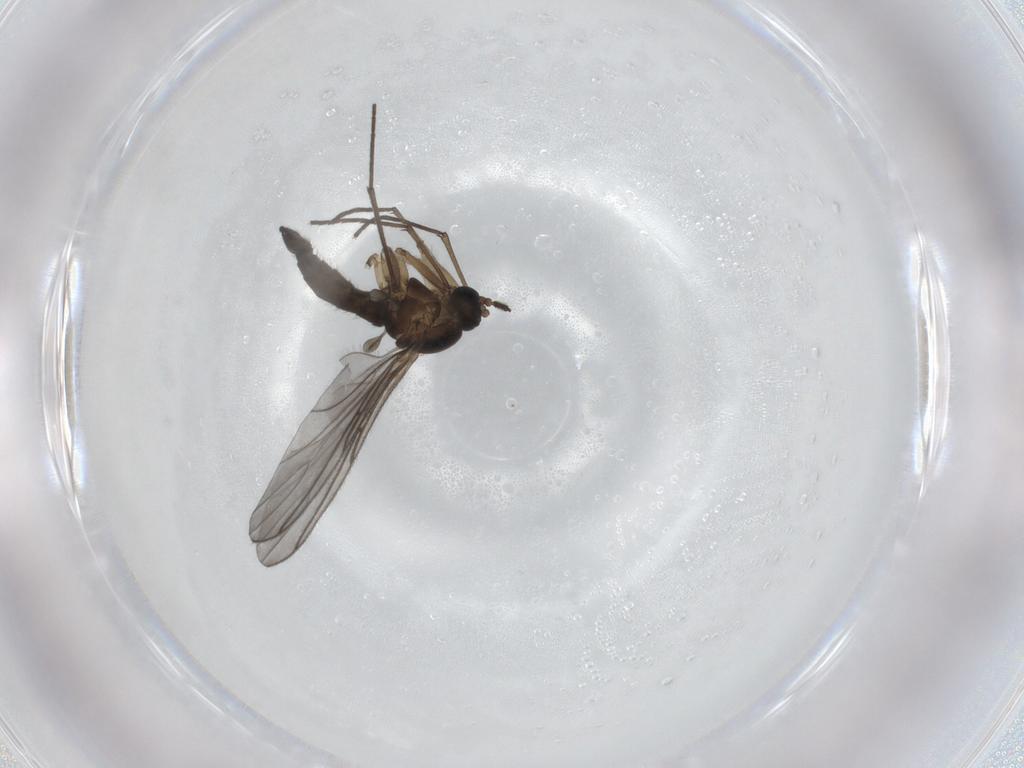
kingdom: Animalia
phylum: Arthropoda
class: Insecta
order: Diptera
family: Sciaridae
